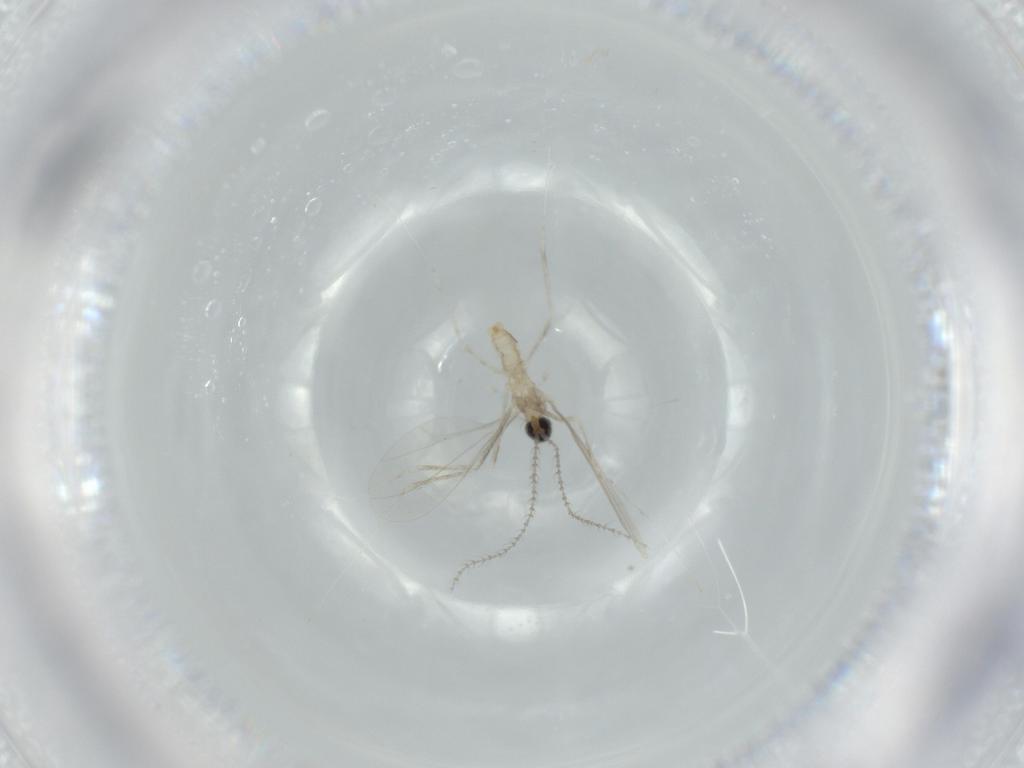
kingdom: Animalia
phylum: Arthropoda
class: Insecta
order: Diptera
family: Cecidomyiidae
